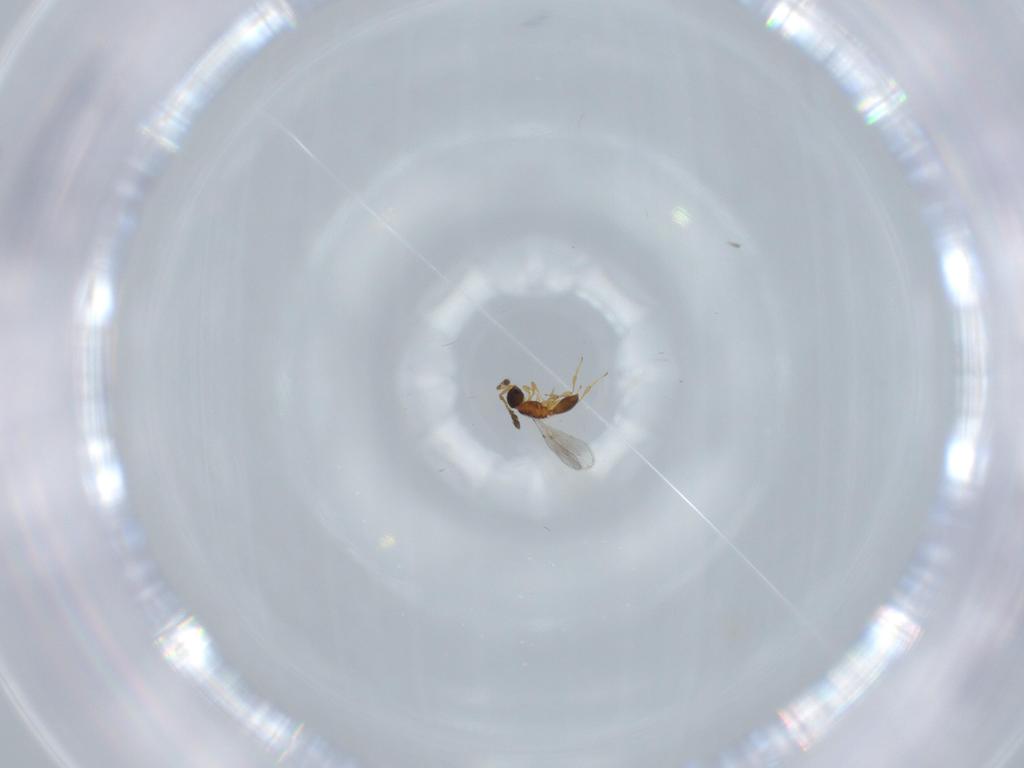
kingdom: Animalia
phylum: Arthropoda
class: Insecta
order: Hymenoptera
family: Diapriidae
